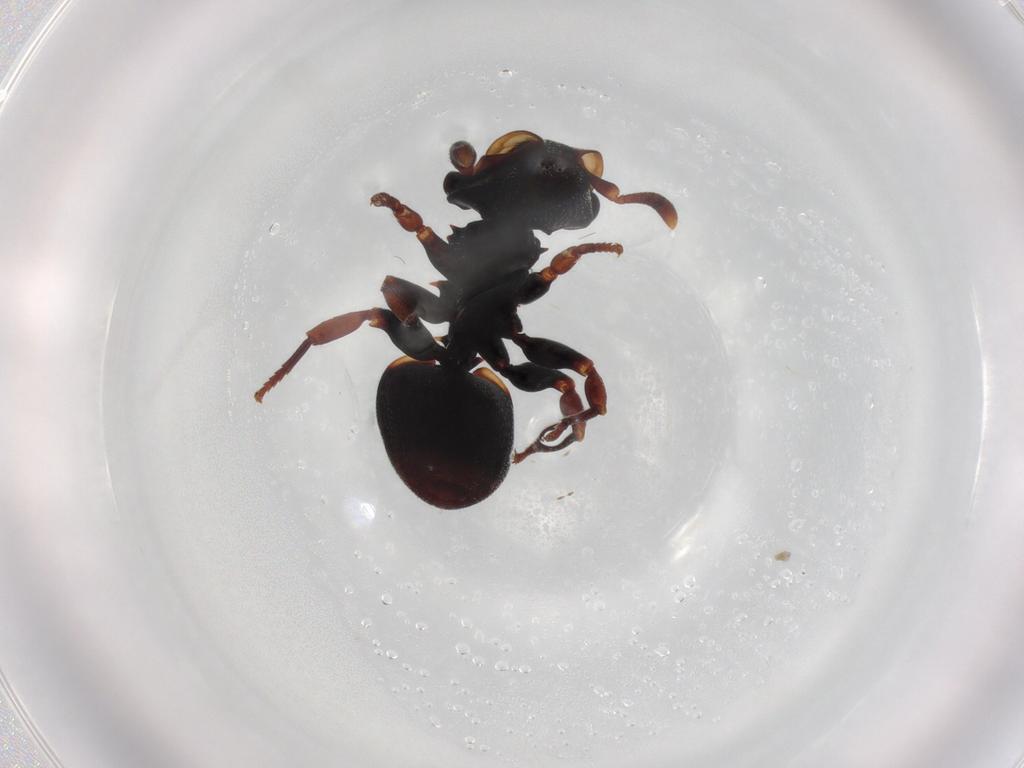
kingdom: Animalia
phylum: Arthropoda
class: Insecta
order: Hymenoptera
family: Formicidae
